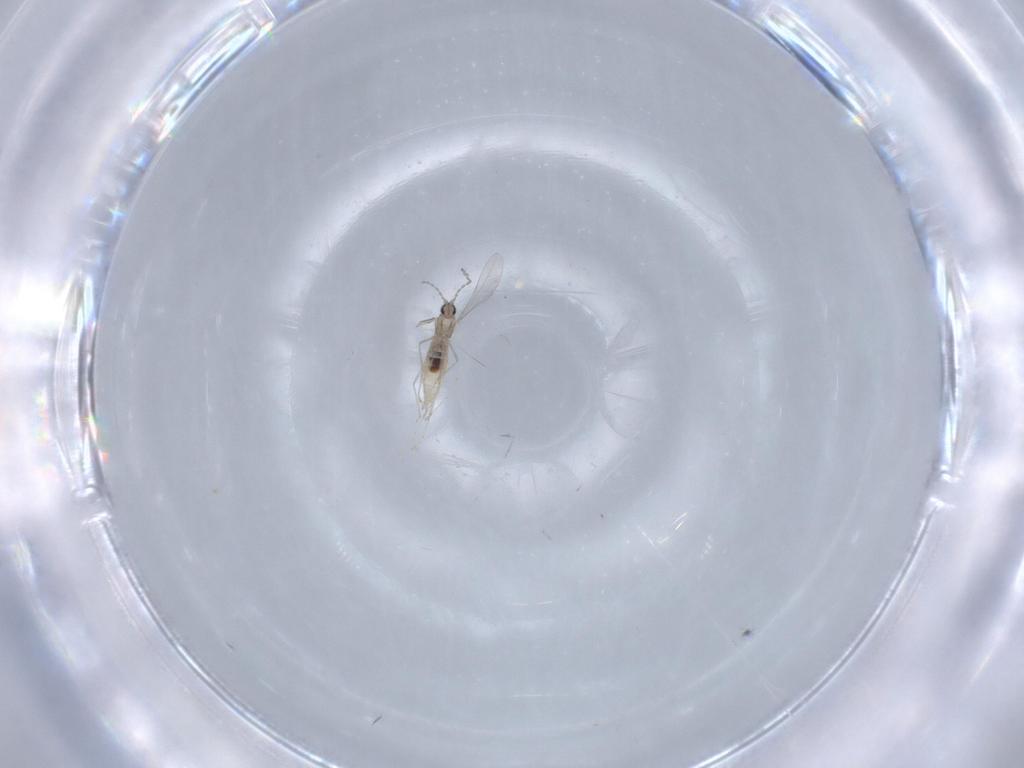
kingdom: Animalia
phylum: Arthropoda
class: Insecta
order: Diptera
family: Cecidomyiidae
